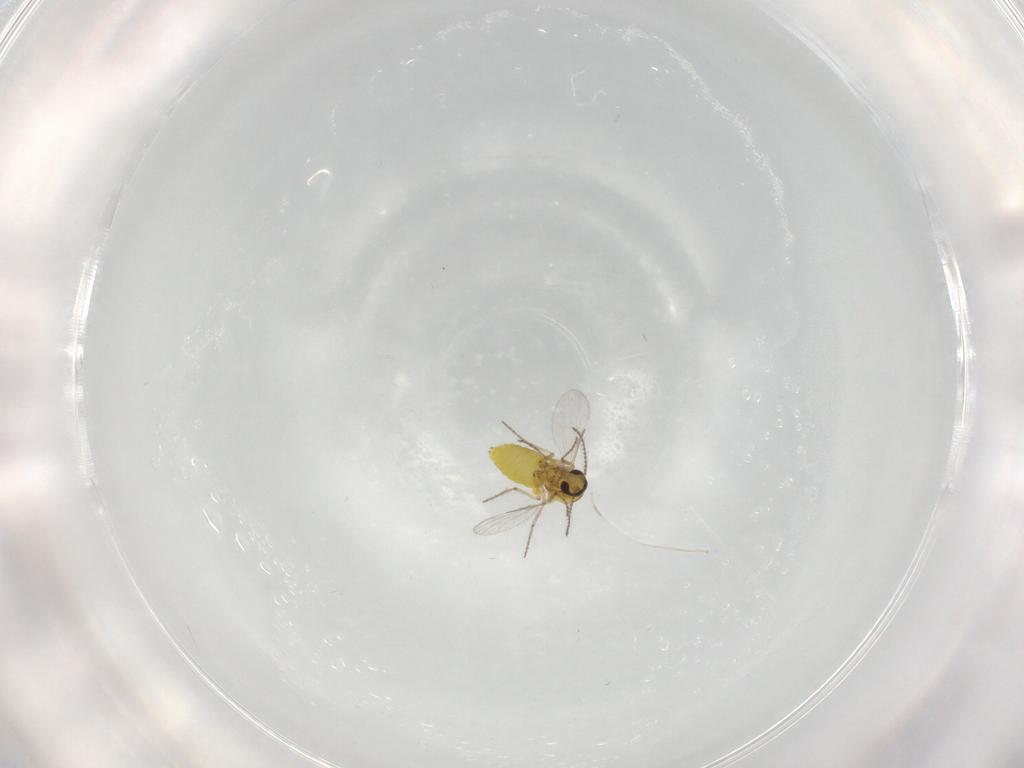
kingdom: Animalia
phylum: Arthropoda
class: Insecta
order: Diptera
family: Ceratopogonidae
